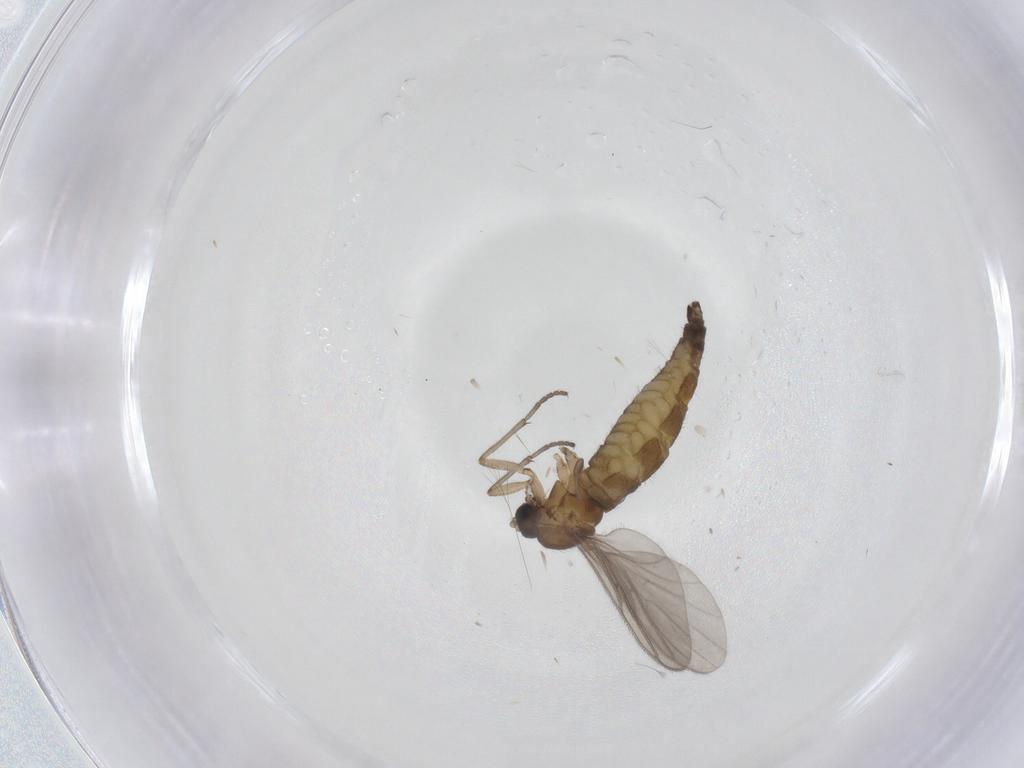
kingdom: Animalia
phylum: Arthropoda
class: Insecta
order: Diptera
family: Sciaridae
